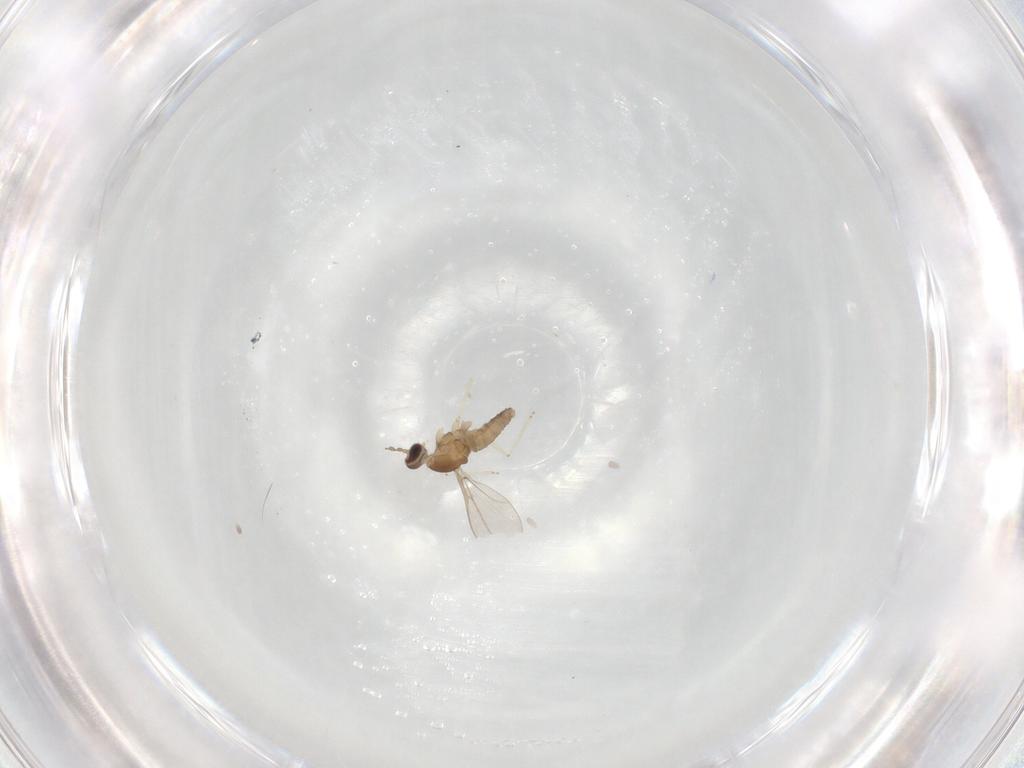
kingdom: Animalia
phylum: Arthropoda
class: Insecta
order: Diptera
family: Cecidomyiidae
